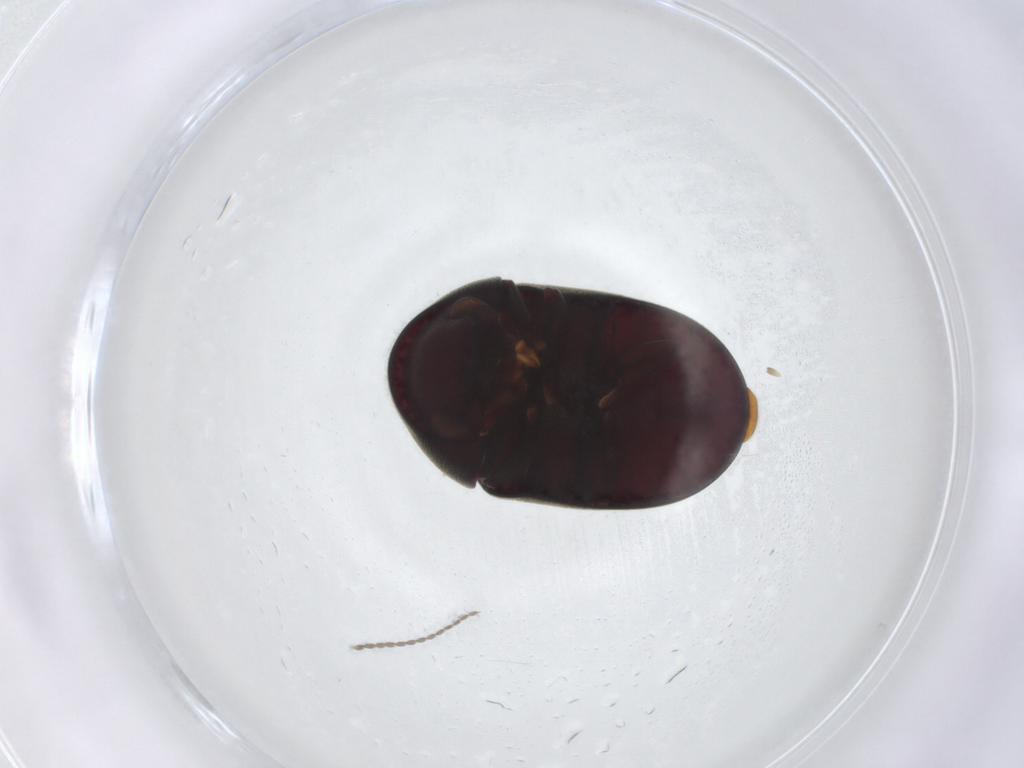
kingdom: Animalia
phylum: Arthropoda
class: Insecta
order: Coleoptera
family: Ptinidae
